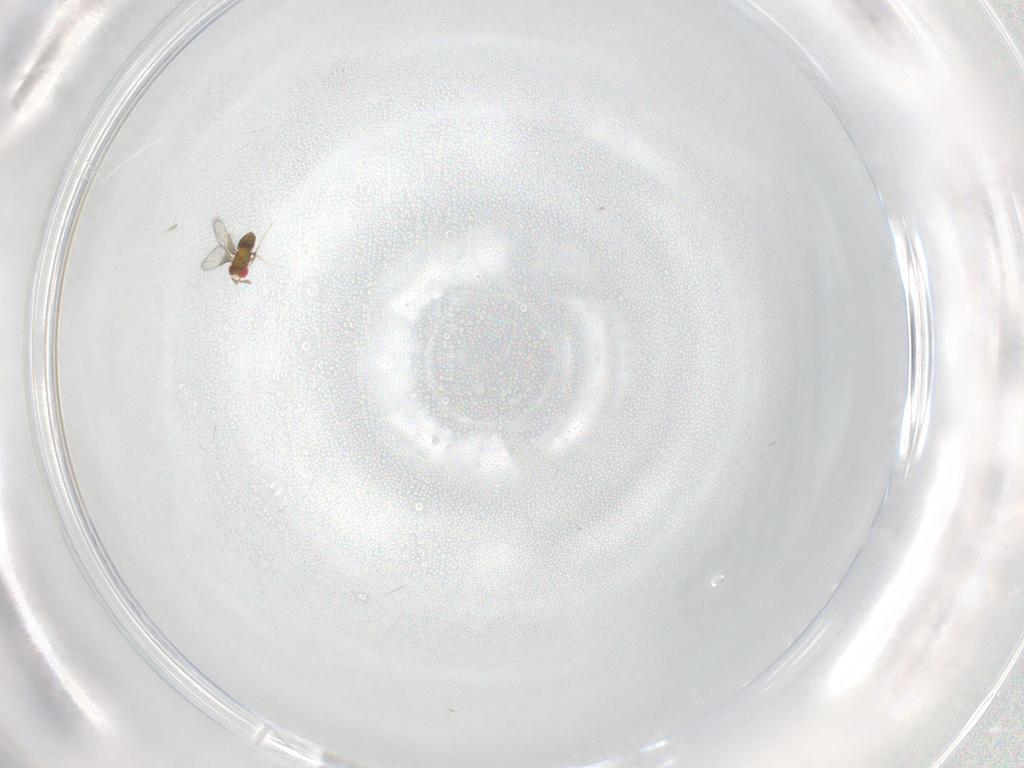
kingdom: Animalia
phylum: Arthropoda
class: Insecta
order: Hymenoptera
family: Trichogrammatidae
